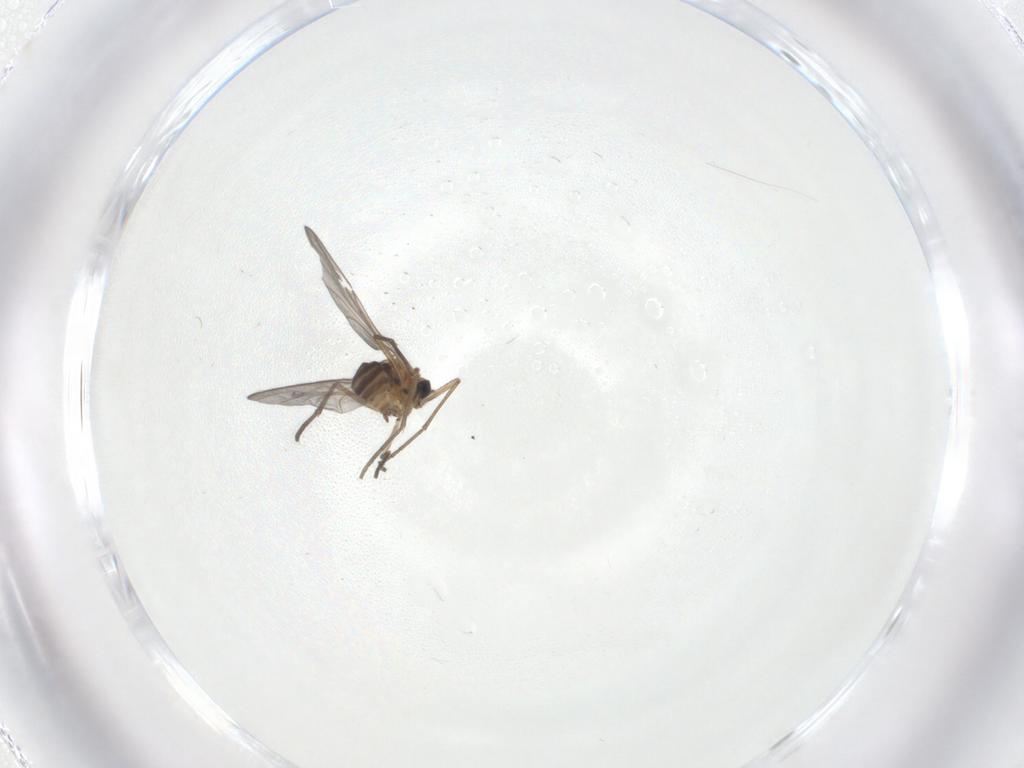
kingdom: Animalia
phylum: Arthropoda
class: Insecta
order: Diptera
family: Sciaridae
